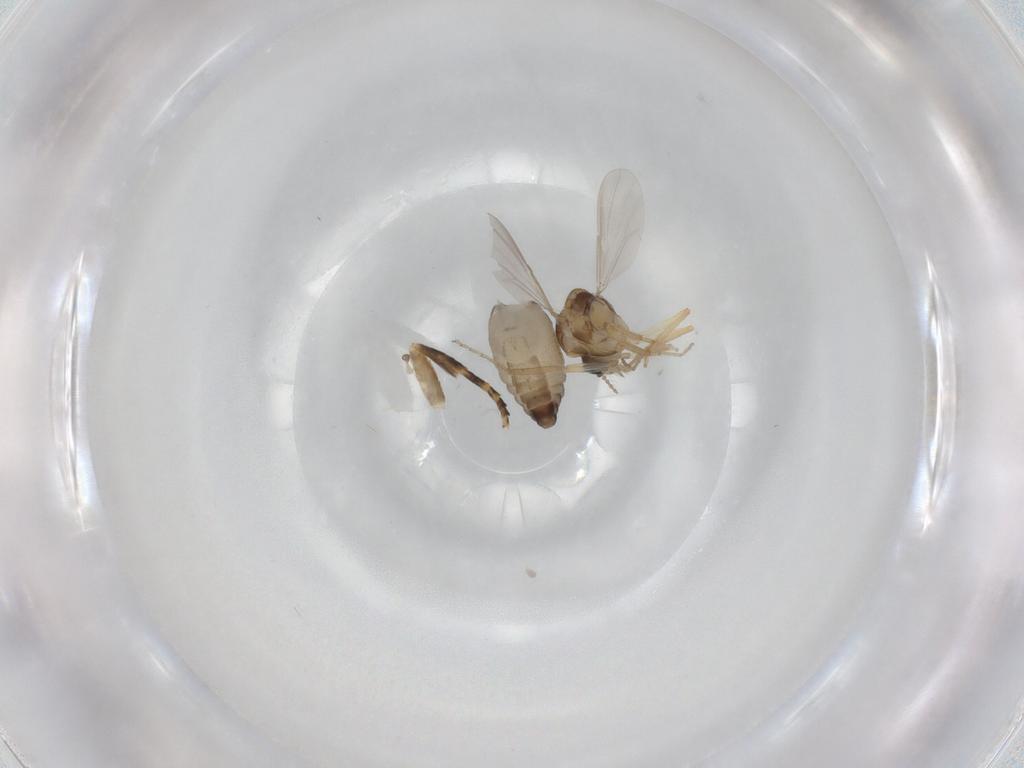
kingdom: Animalia
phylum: Arthropoda
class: Insecta
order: Diptera
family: Ceratopogonidae
